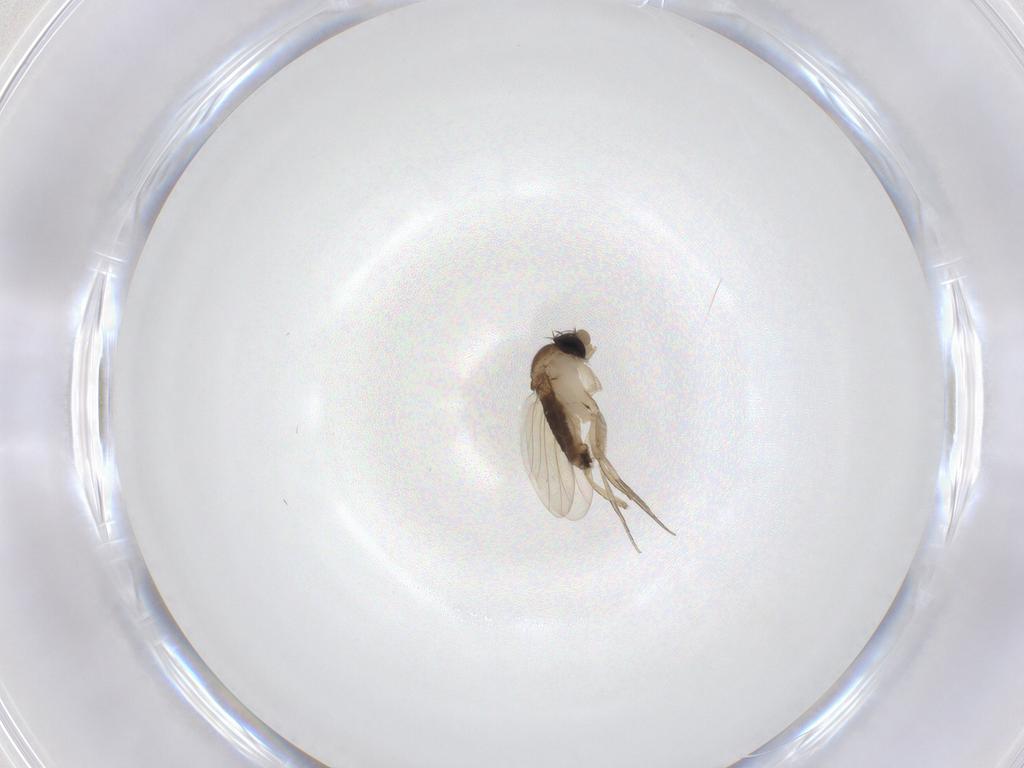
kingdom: Animalia
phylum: Arthropoda
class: Insecta
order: Diptera
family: Phoridae
